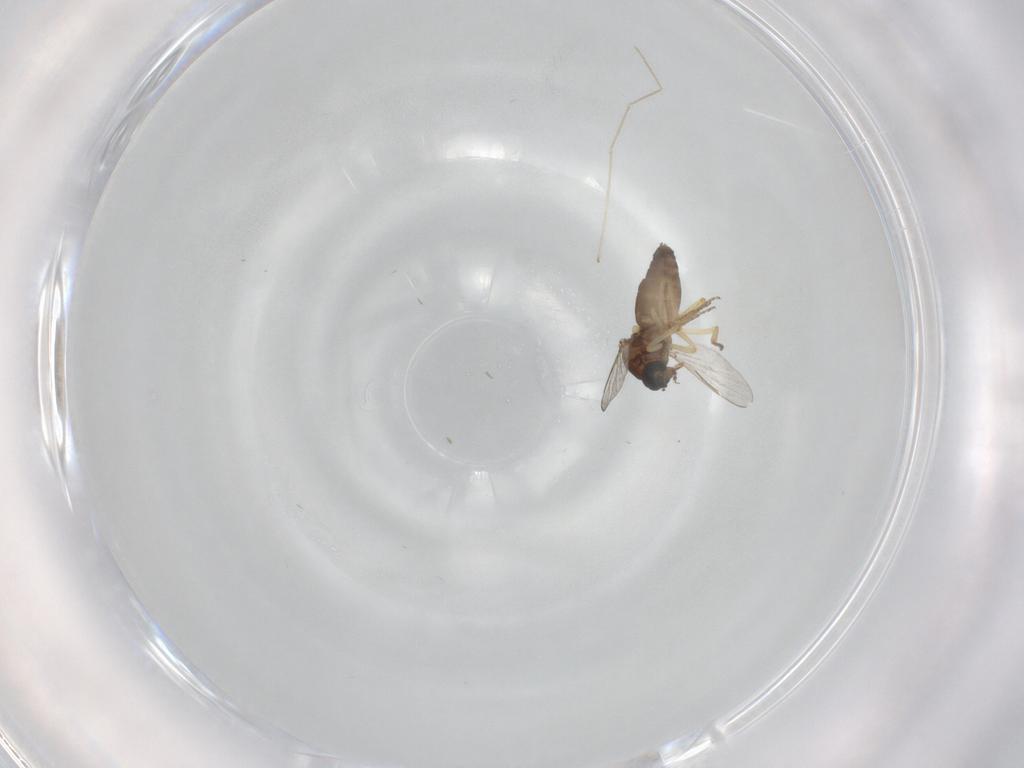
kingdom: Animalia
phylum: Arthropoda
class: Insecta
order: Diptera
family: Chironomidae
